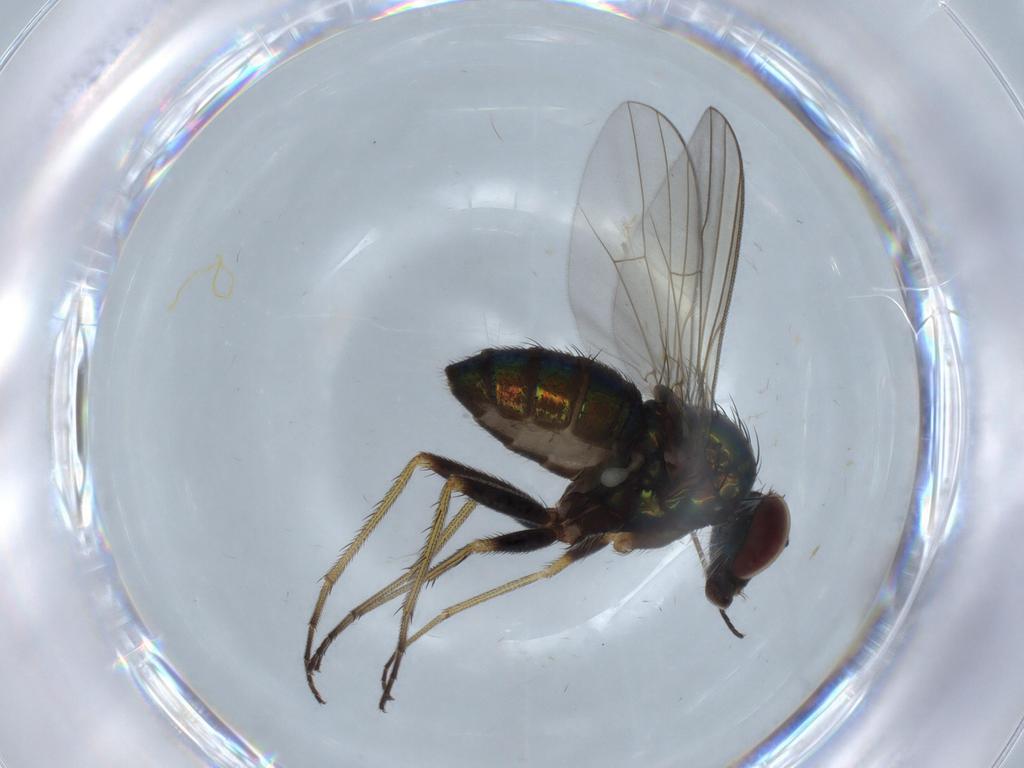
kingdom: Animalia
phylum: Arthropoda
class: Insecta
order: Diptera
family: Dolichopodidae
